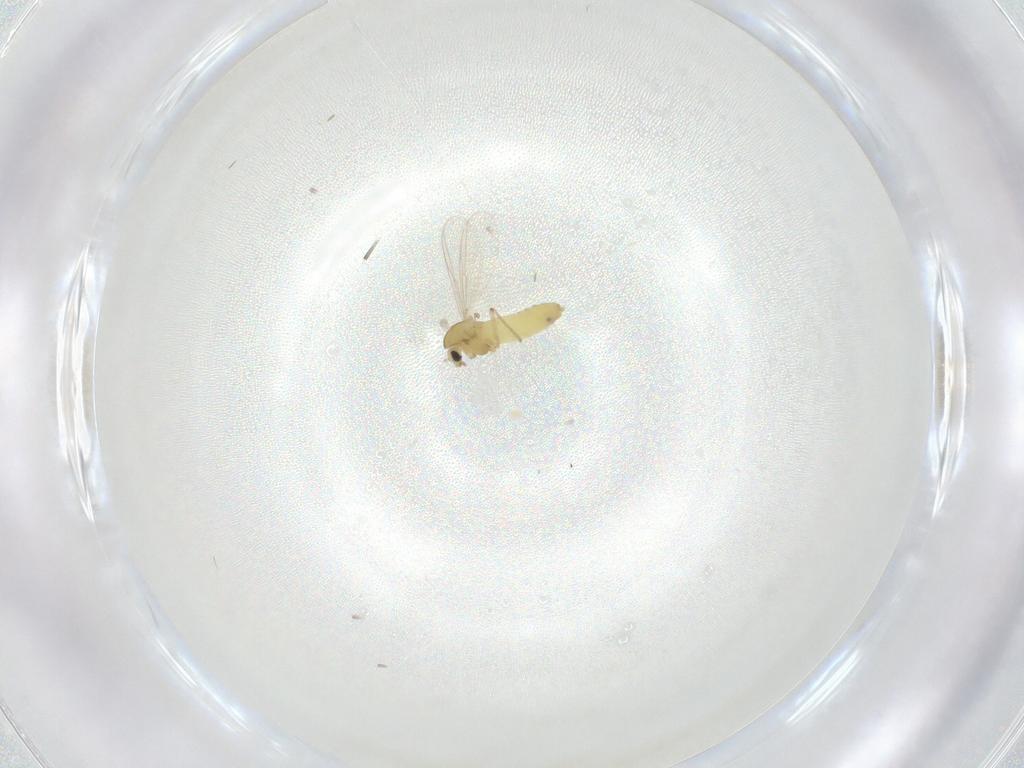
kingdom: Animalia
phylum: Arthropoda
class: Insecta
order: Diptera
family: Chironomidae
